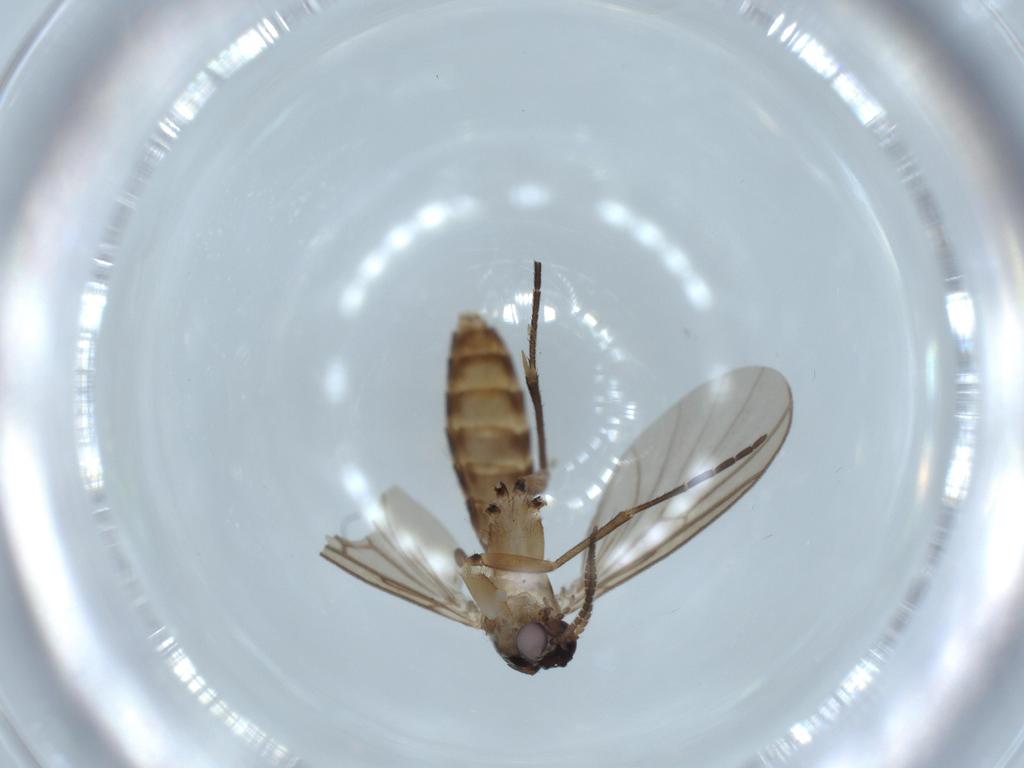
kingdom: Animalia
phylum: Arthropoda
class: Insecta
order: Diptera
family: Mycetophilidae
